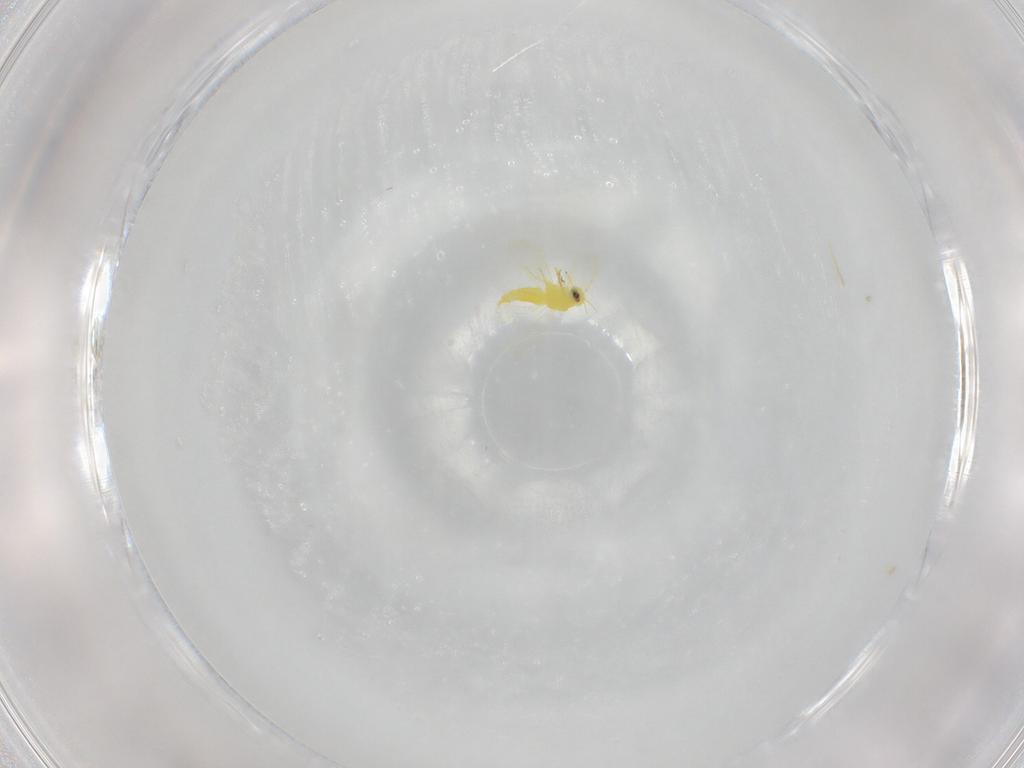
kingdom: Animalia
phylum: Arthropoda
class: Insecta
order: Hemiptera
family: Aleyrodidae
